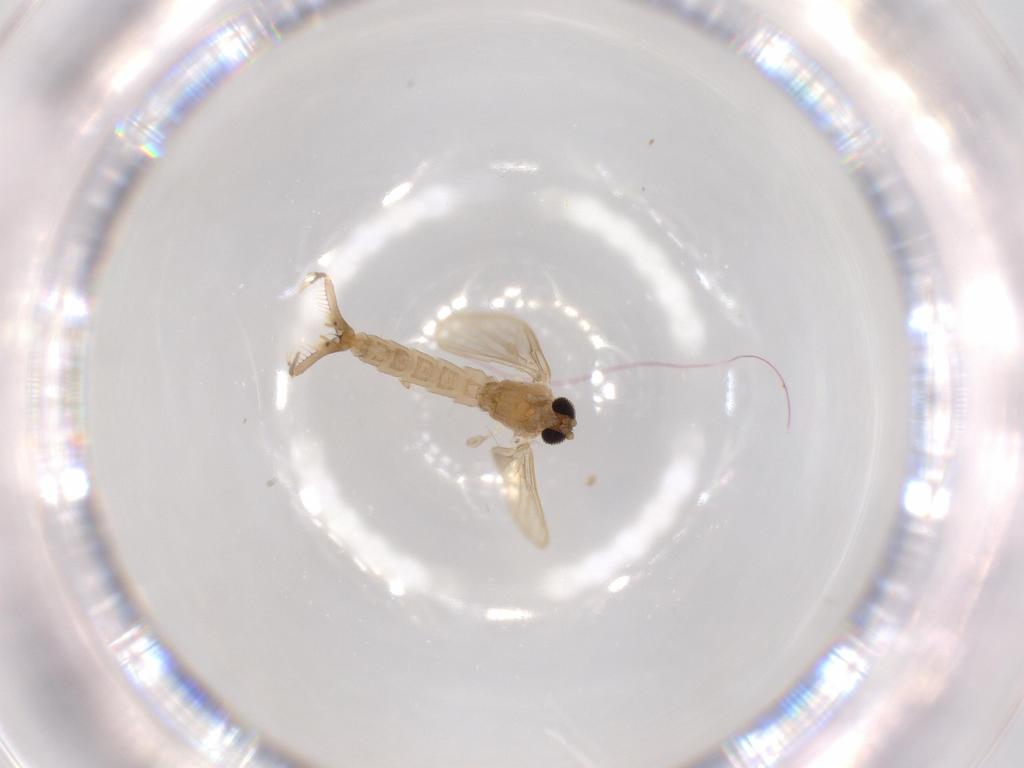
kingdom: Animalia
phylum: Arthropoda
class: Insecta
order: Diptera
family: Psychodidae
